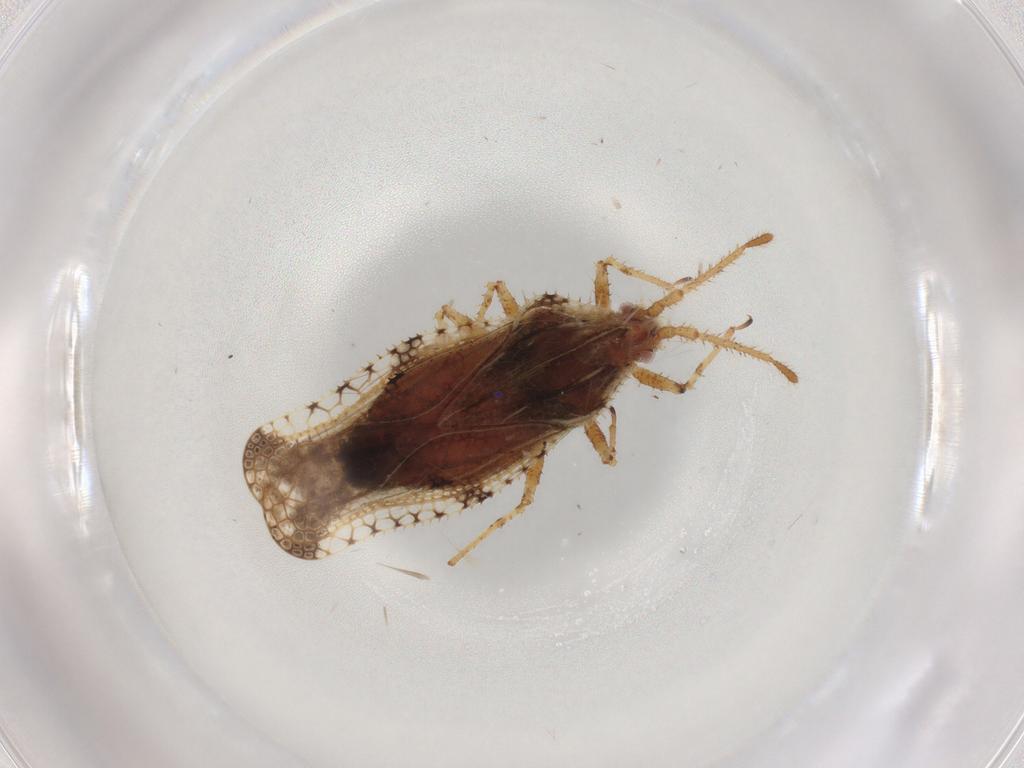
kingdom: Animalia
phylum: Arthropoda
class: Insecta
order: Hemiptera
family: Tingidae
